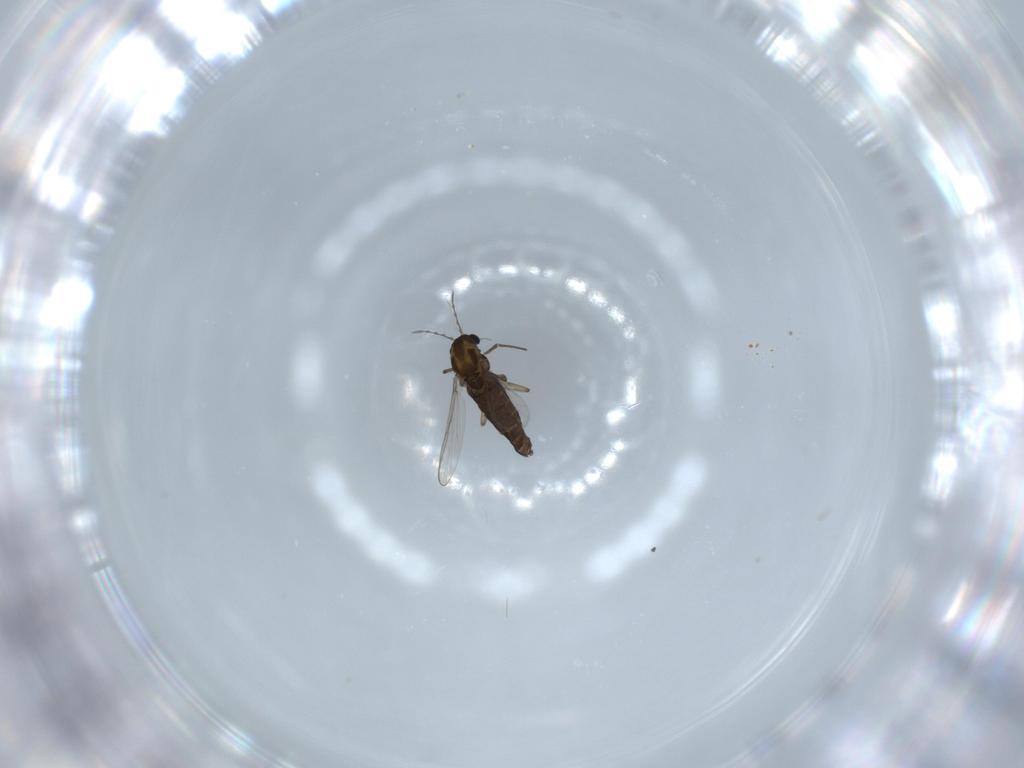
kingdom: Animalia
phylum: Arthropoda
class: Insecta
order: Diptera
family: Chironomidae
